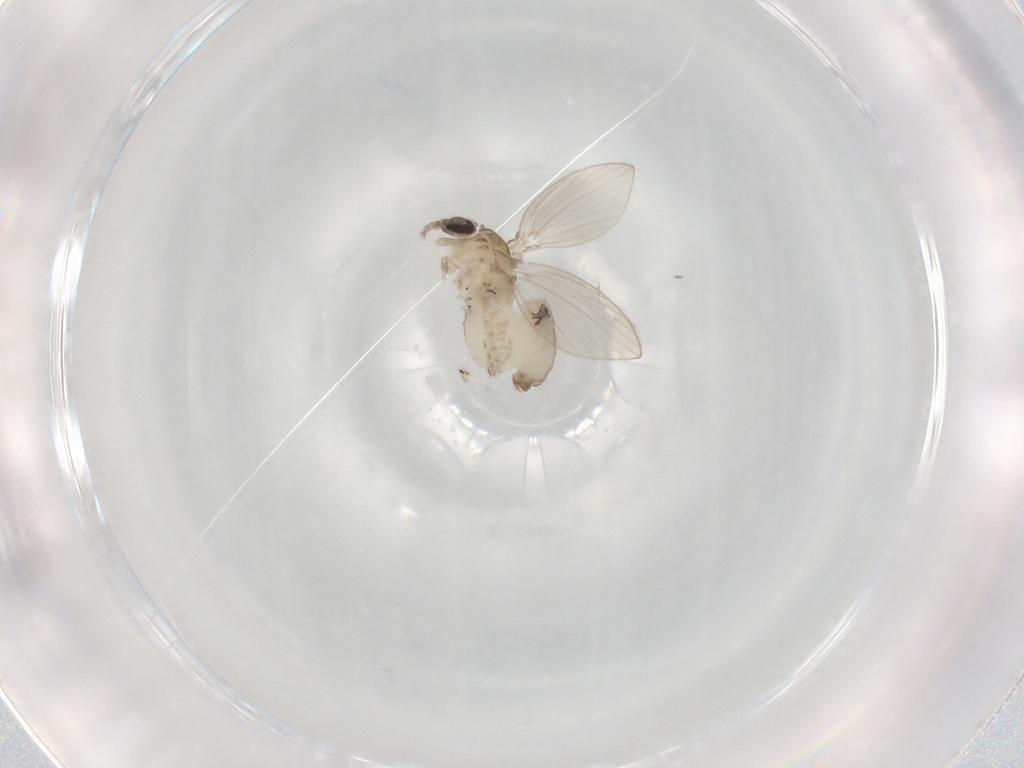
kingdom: Animalia
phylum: Arthropoda
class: Insecta
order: Diptera
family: Psychodidae
